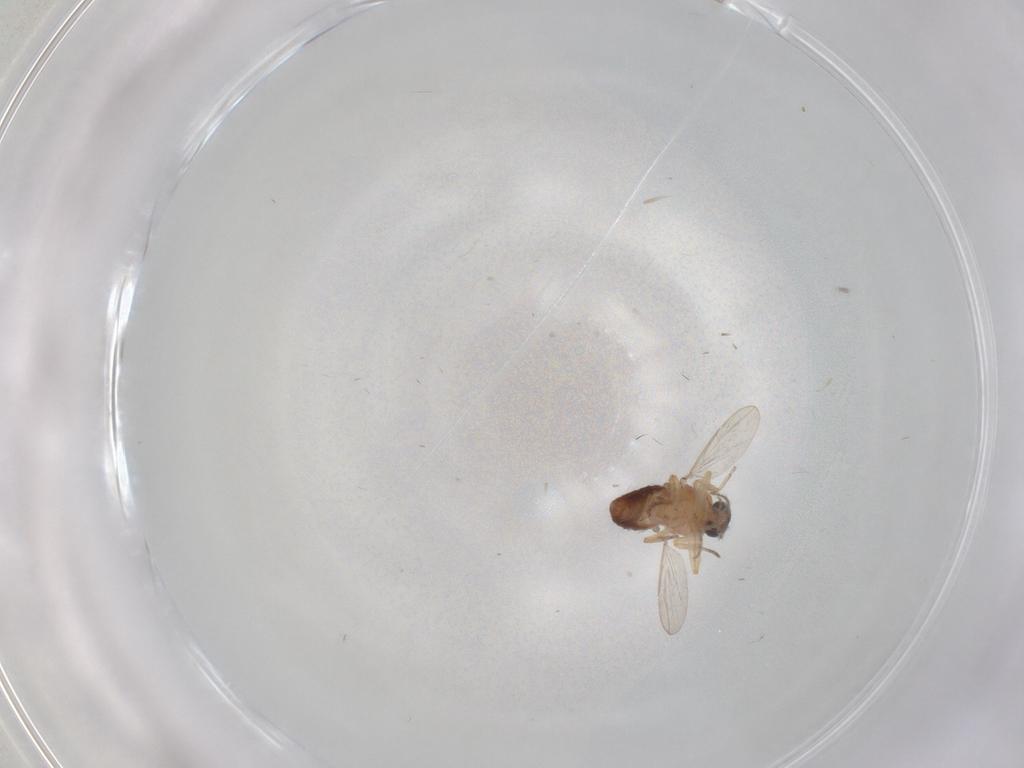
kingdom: Animalia
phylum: Arthropoda
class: Insecta
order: Diptera
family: Ceratopogonidae
